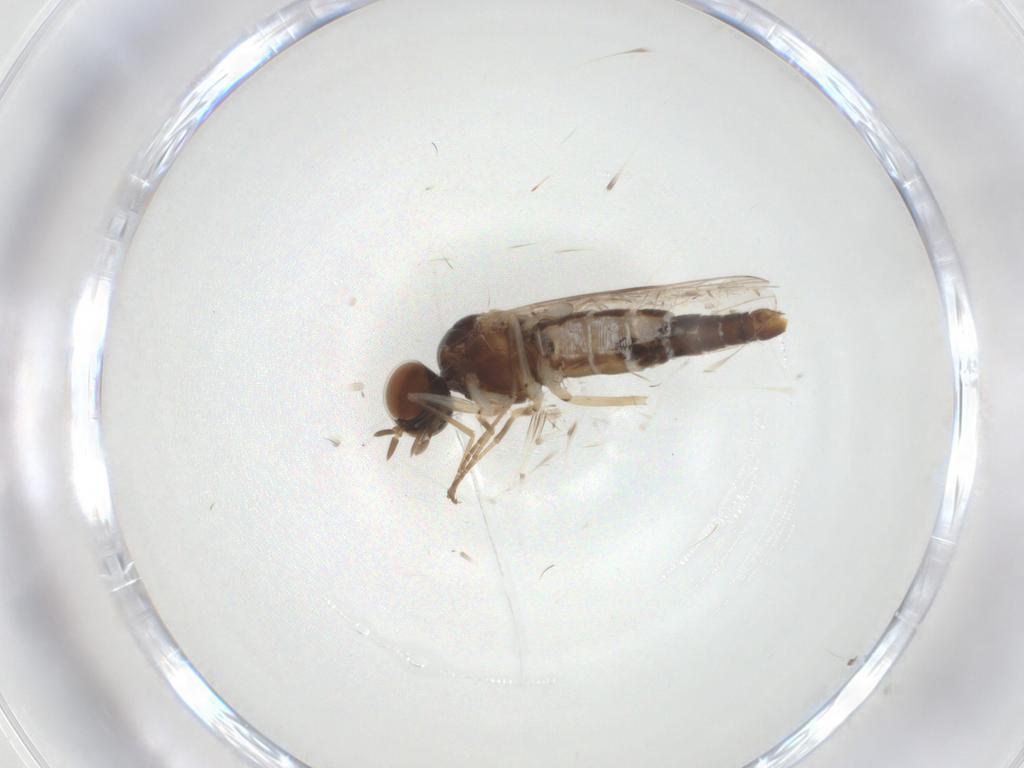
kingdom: Animalia
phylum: Arthropoda
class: Insecta
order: Diptera
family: Scenopinidae
